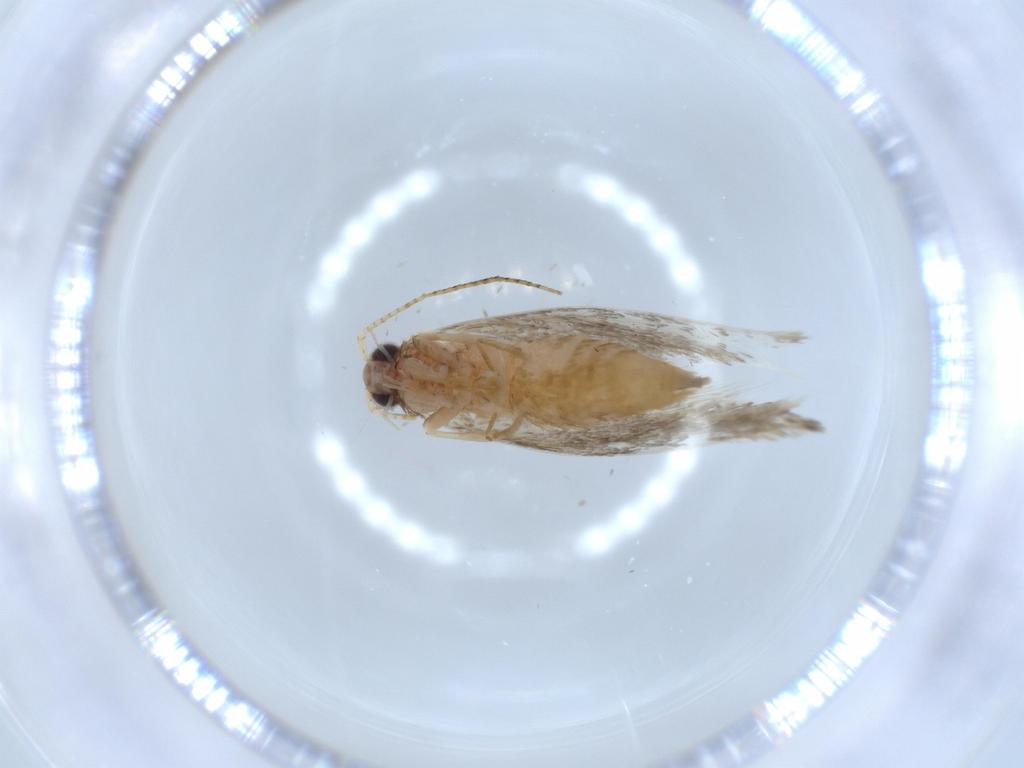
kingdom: Animalia
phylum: Arthropoda
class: Insecta
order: Lepidoptera
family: Tineidae
